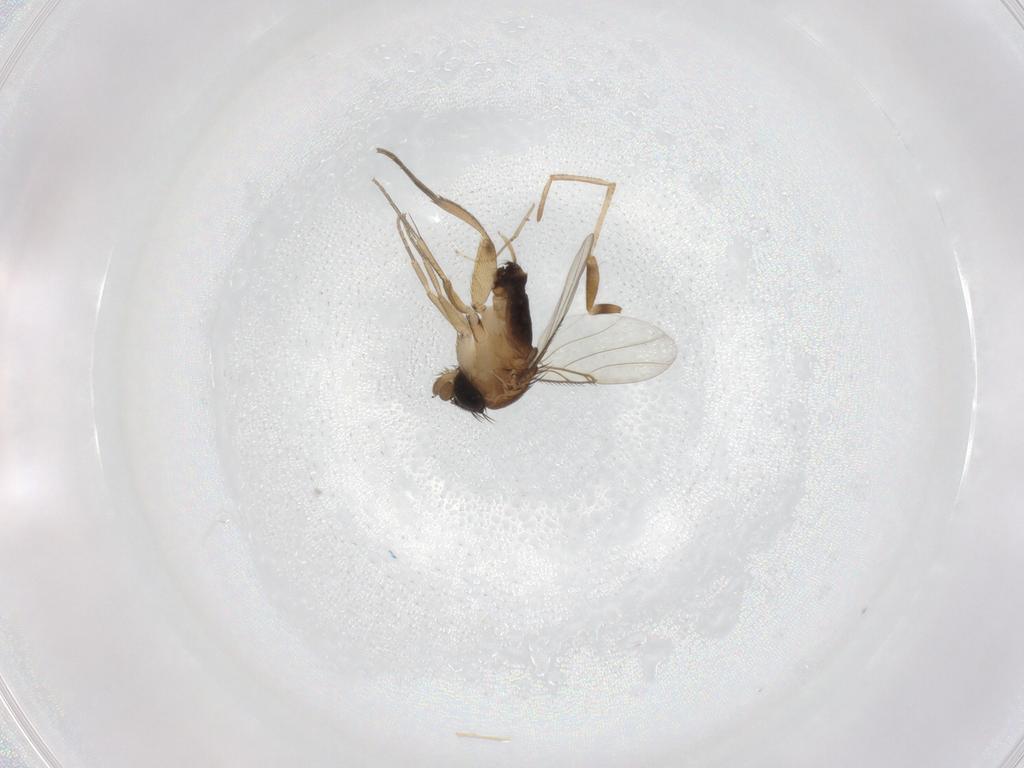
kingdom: Animalia
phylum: Arthropoda
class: Insecta
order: Diptera
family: Phoridae
